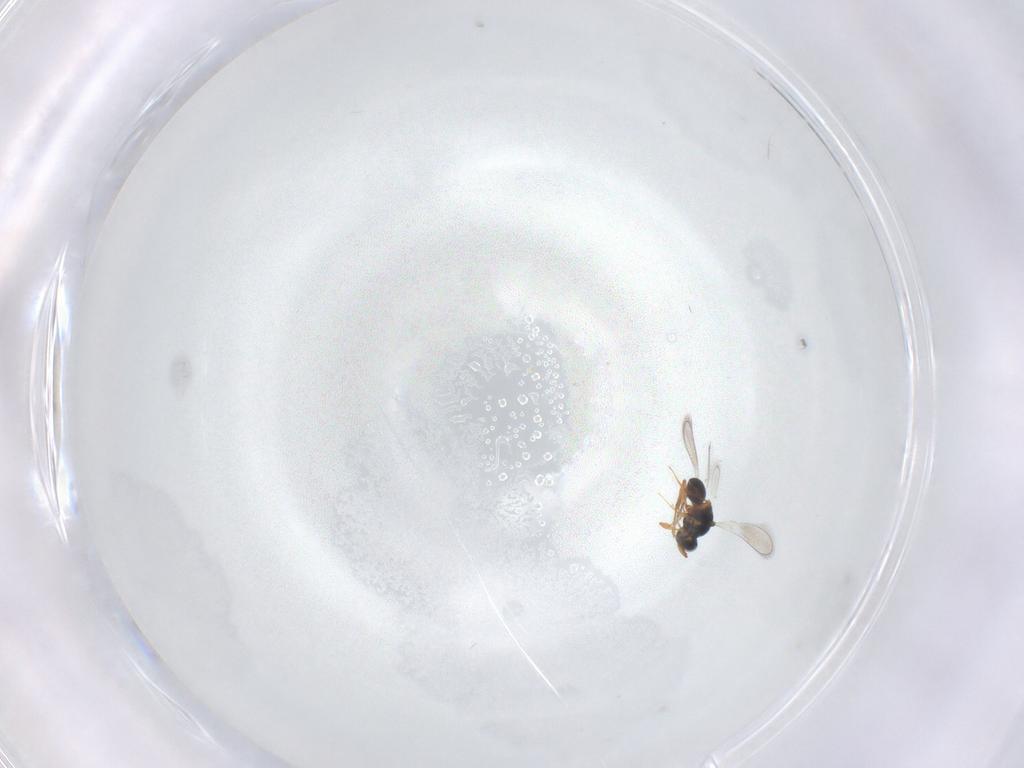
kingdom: Animalia
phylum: Arthropoda
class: Insecta
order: Hymenoptera
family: Platygastridae
